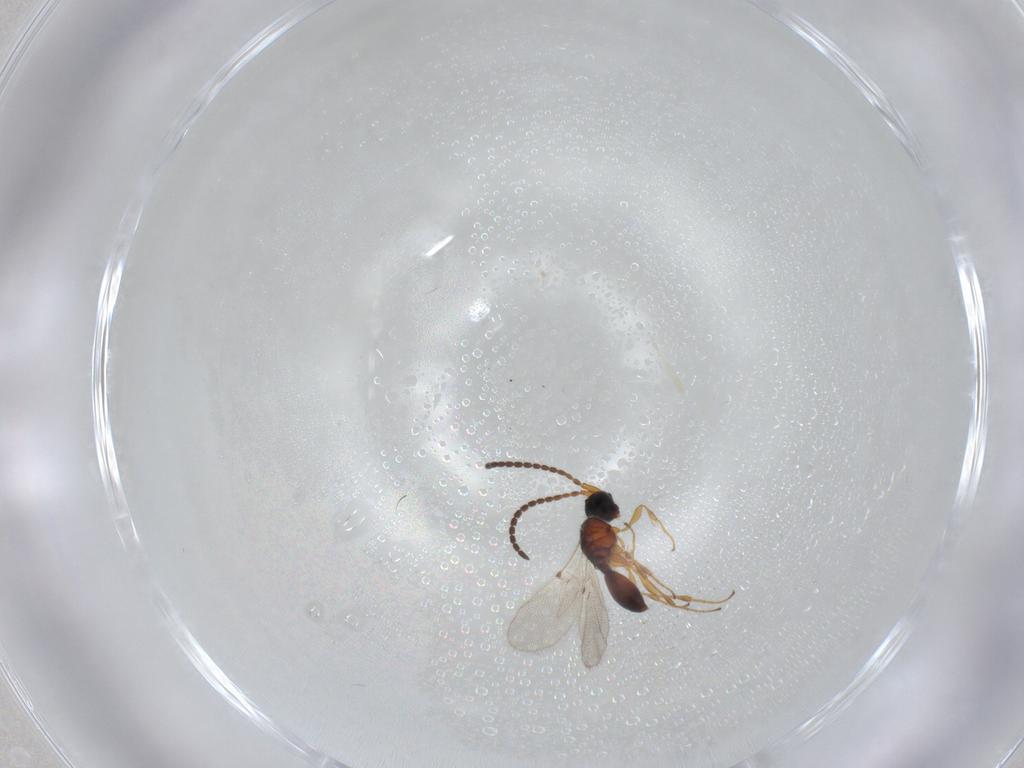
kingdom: Animalia
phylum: Arthropoda
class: Insecta
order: Hymenoptera
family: Diapriidae
